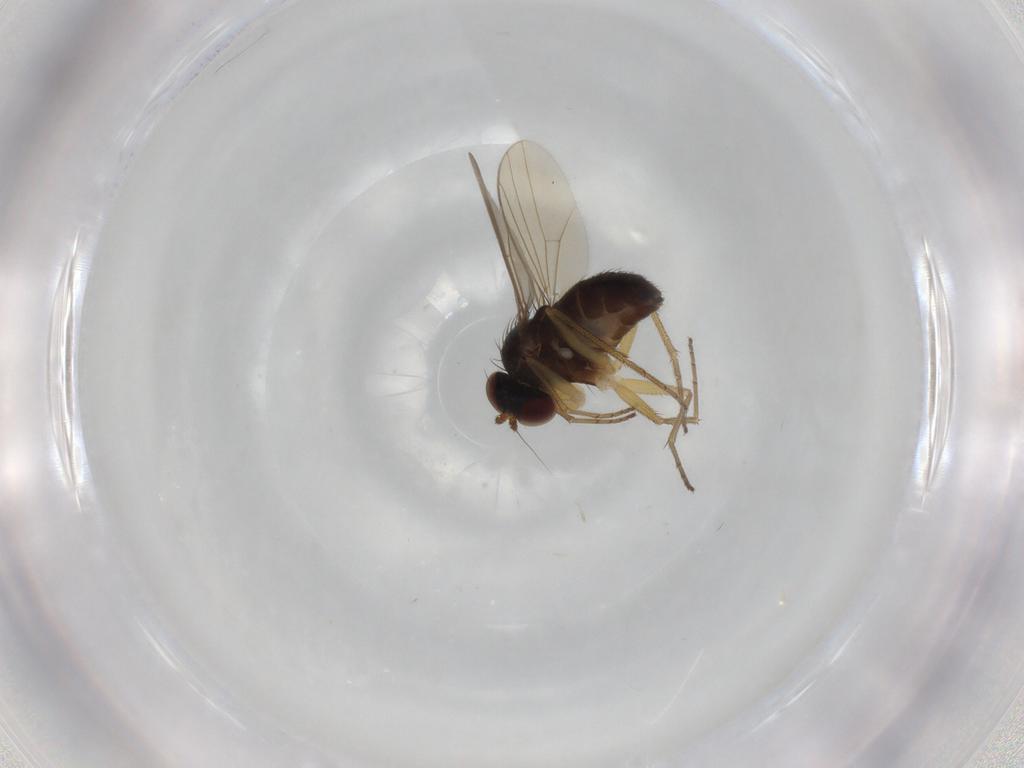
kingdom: Animalia
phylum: Arthropoda
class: Insecta
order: Diptera
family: Dolichopodidae
